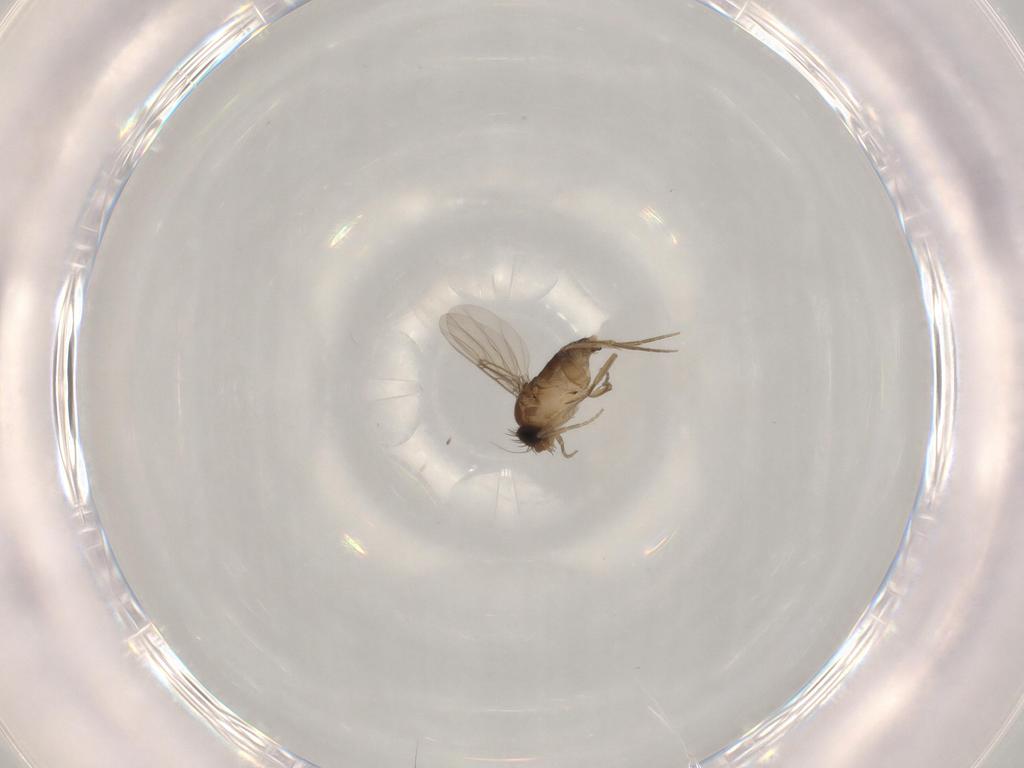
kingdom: Animalia
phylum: Arthropoda
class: Insecta
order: Diptera
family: Phoridae
